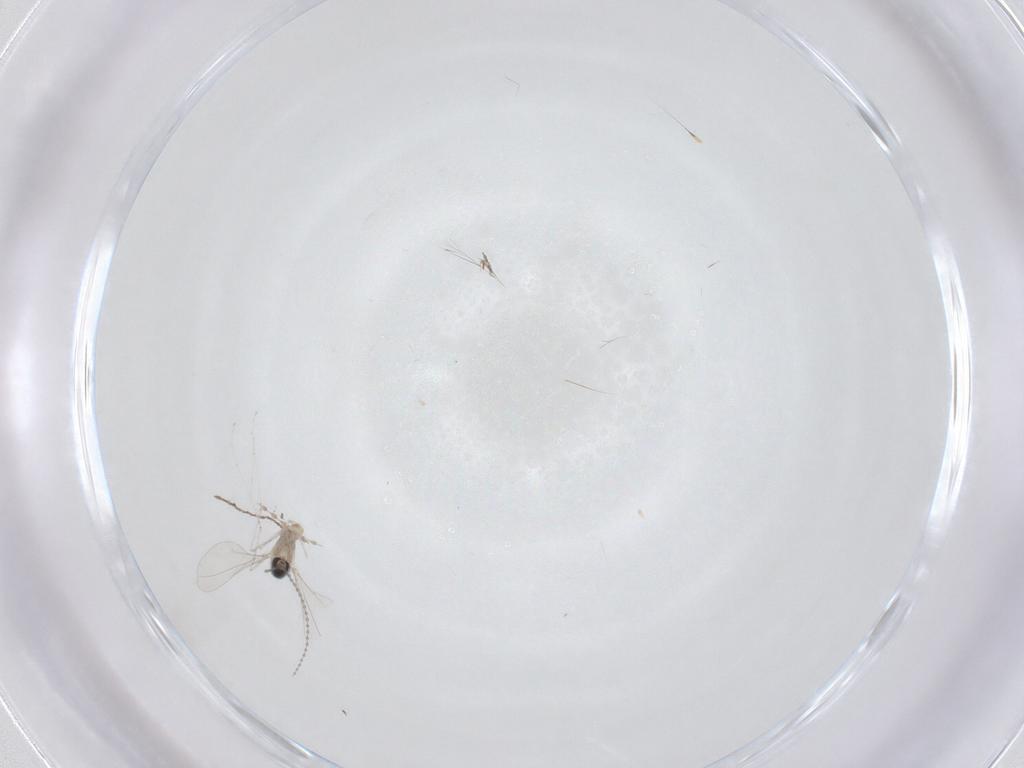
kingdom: Animalia
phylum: Arthropoda
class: Insecta
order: Diptera
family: Cecidomyiidae
